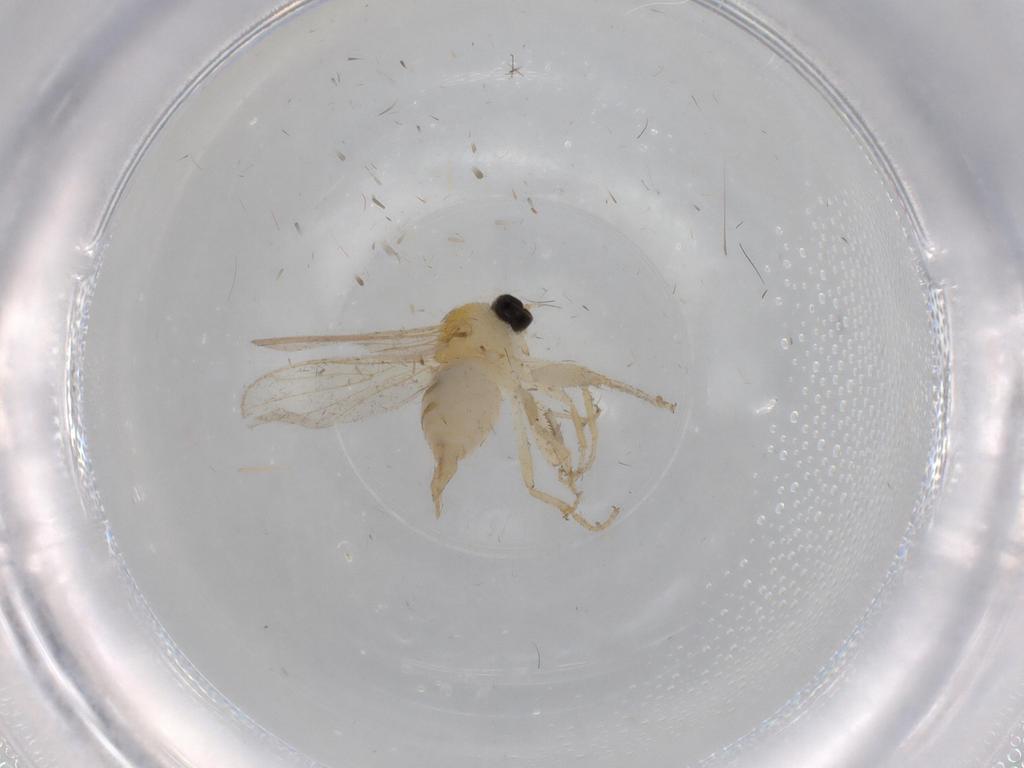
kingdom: Animalia
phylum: Arthropoda
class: Insecta
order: Diptera
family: Cecidomyiidae
